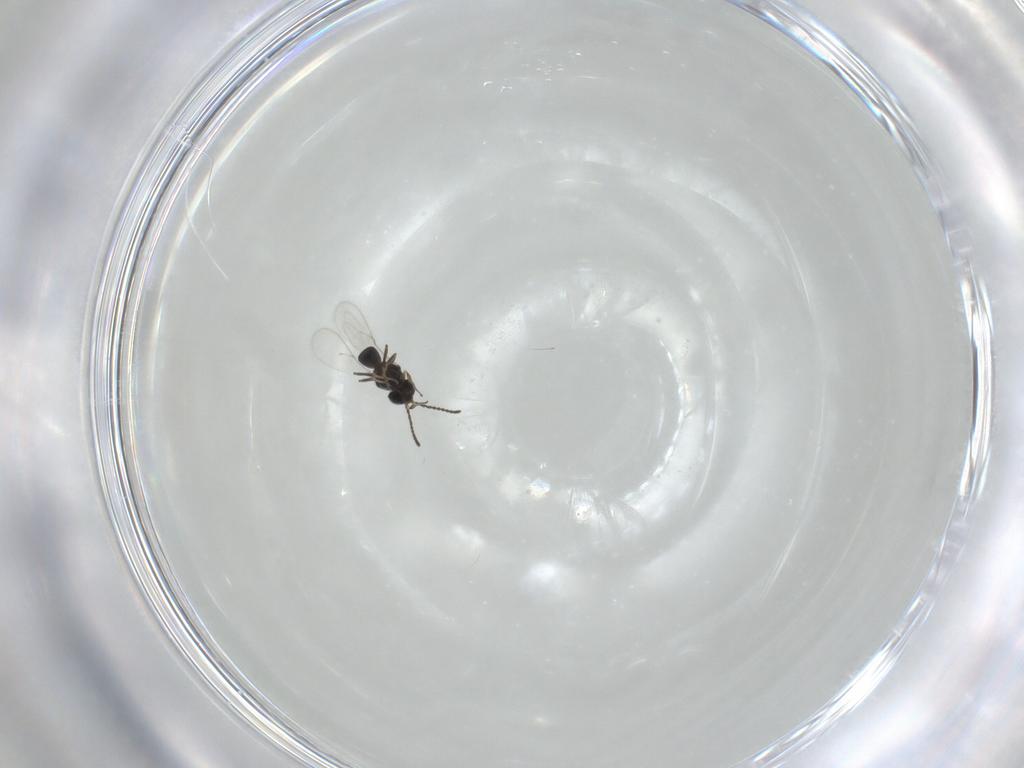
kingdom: Animalia
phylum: Arthropoda
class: Insecta
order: Hymenoptera
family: Scelionidae
